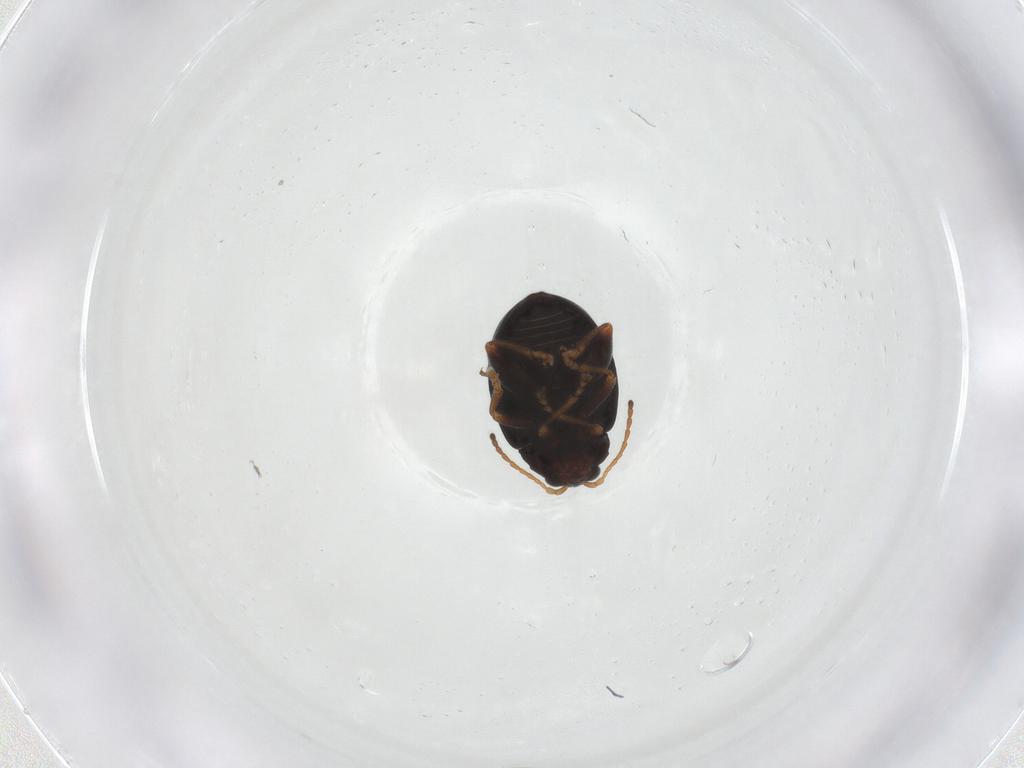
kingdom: Animalia
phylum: Arthropoda
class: Insecta
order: Coleoptera
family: Chrysomelidae
